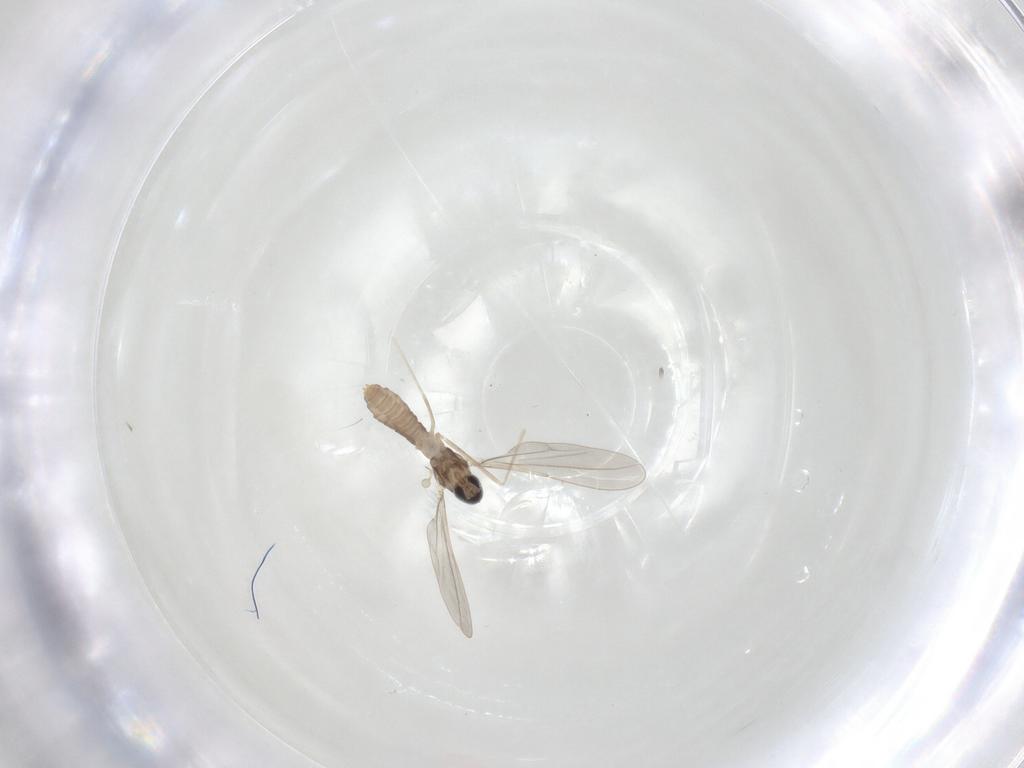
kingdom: Animalia
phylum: Arthropoda
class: Insecta
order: Diptera
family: Cecidomyiidae
